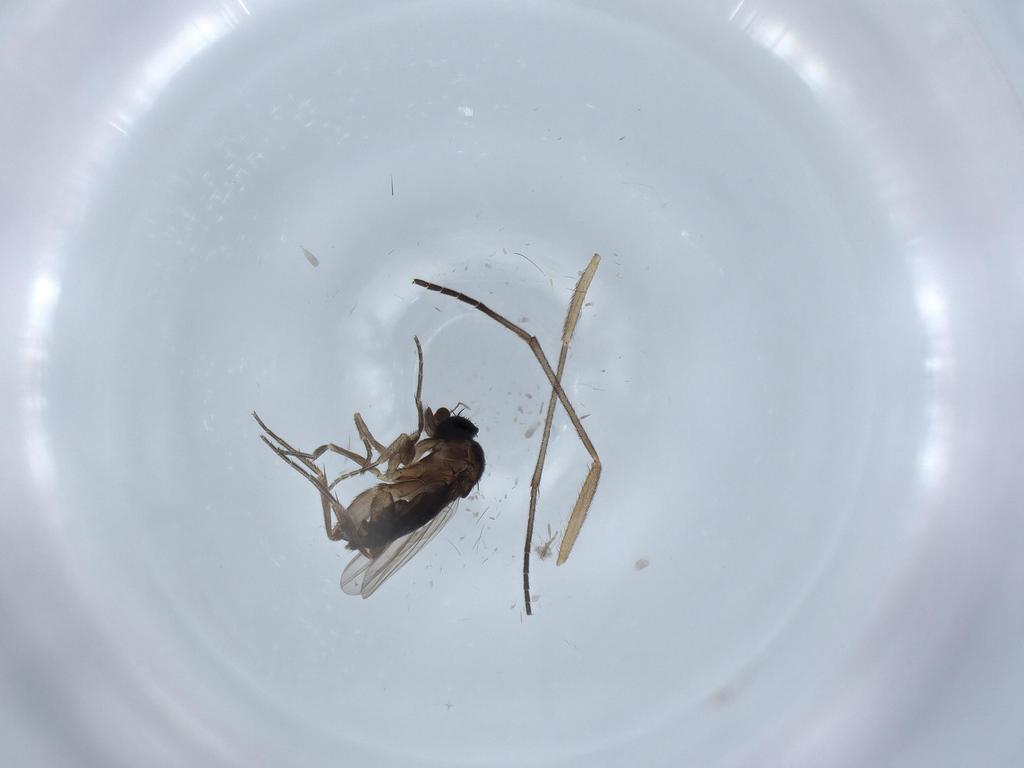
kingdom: Animalia
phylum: Arthropoda
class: Insecta
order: Diptera
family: Phoridae
